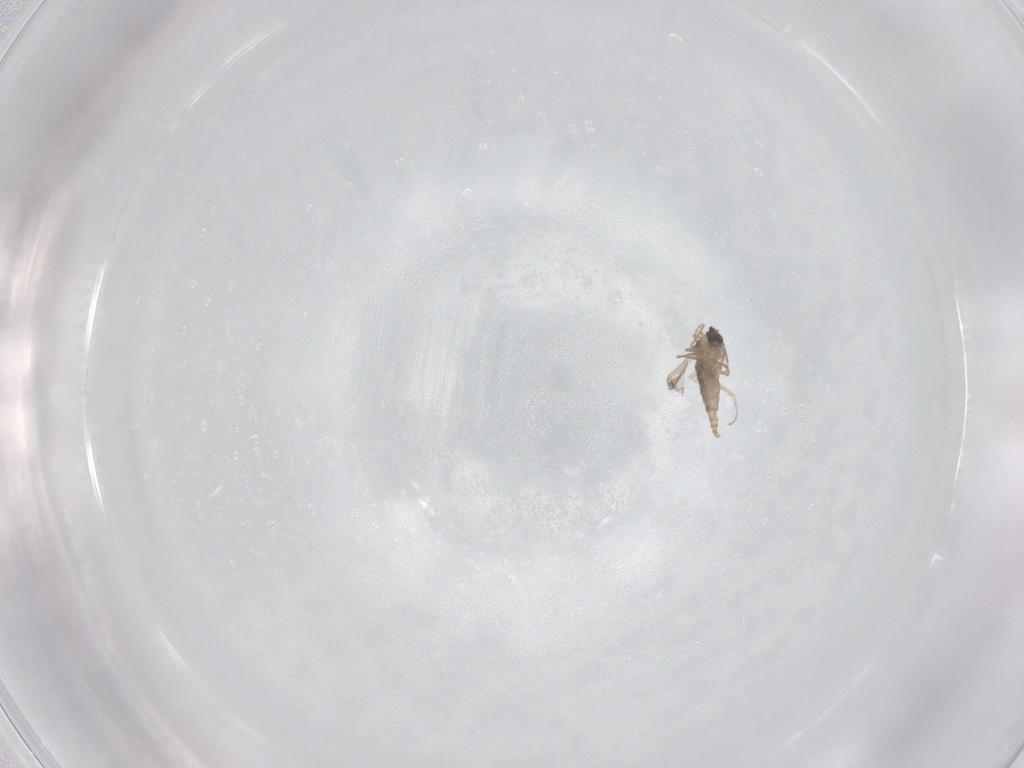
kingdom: Animalia
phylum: Arthropoda
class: Insecta
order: Diptera
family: Cecidomyiidae
